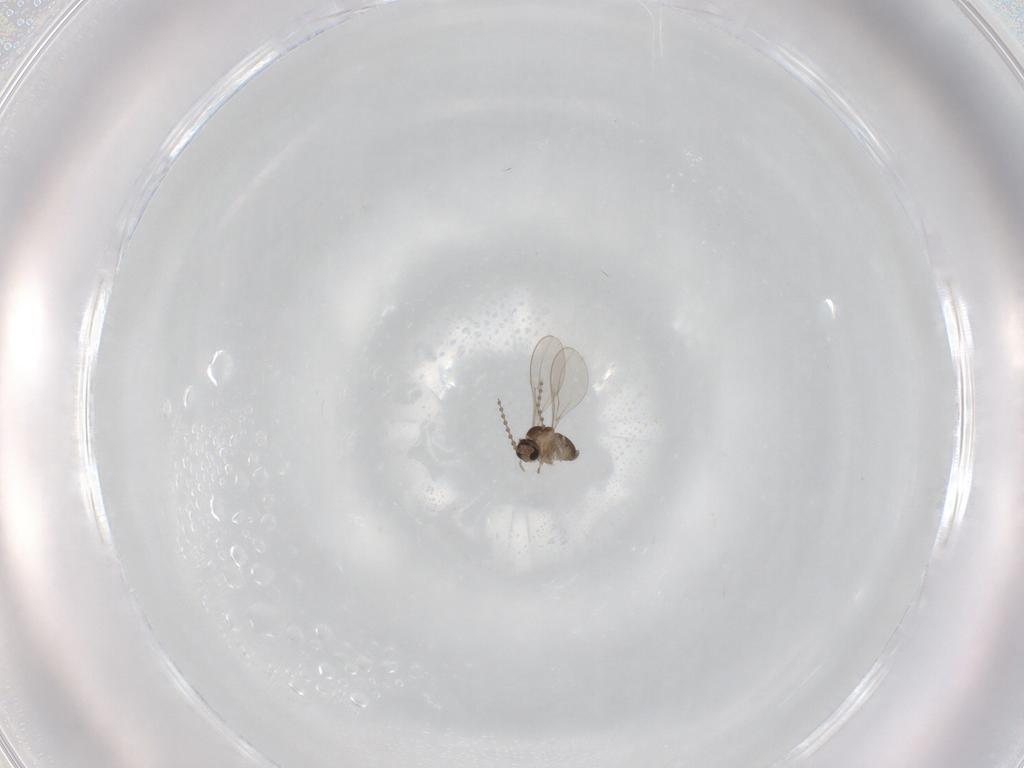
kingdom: Animalia
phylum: Arthropoda
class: Insecta
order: Diptera
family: Cecidomyiidae
